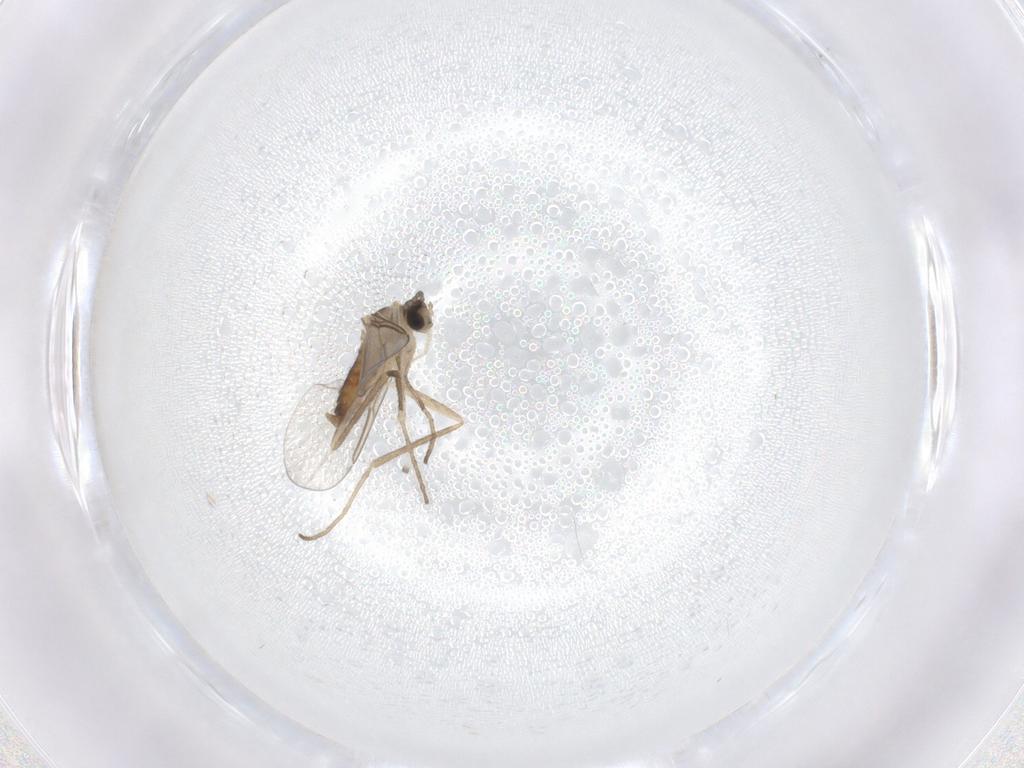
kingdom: Animalia
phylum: Arthropoda
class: Insecta
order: Diptera
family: Cecidomyiidae
